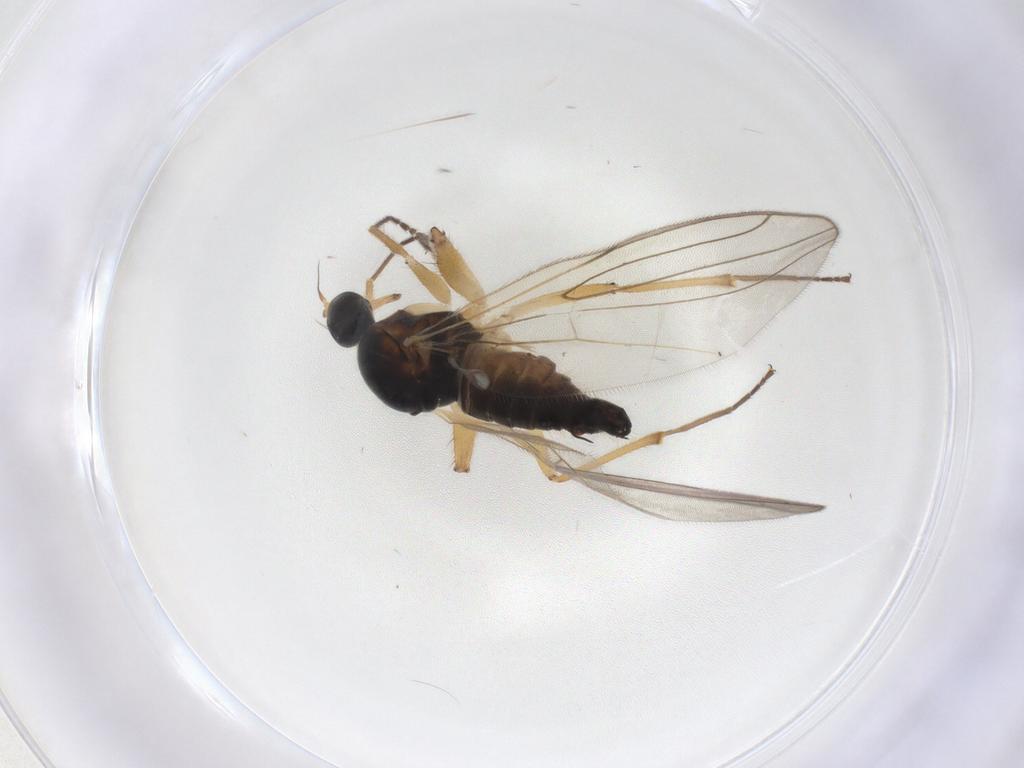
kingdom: Animalia
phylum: Arthropoda
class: Insecta
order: Diptera
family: Hybotidae
